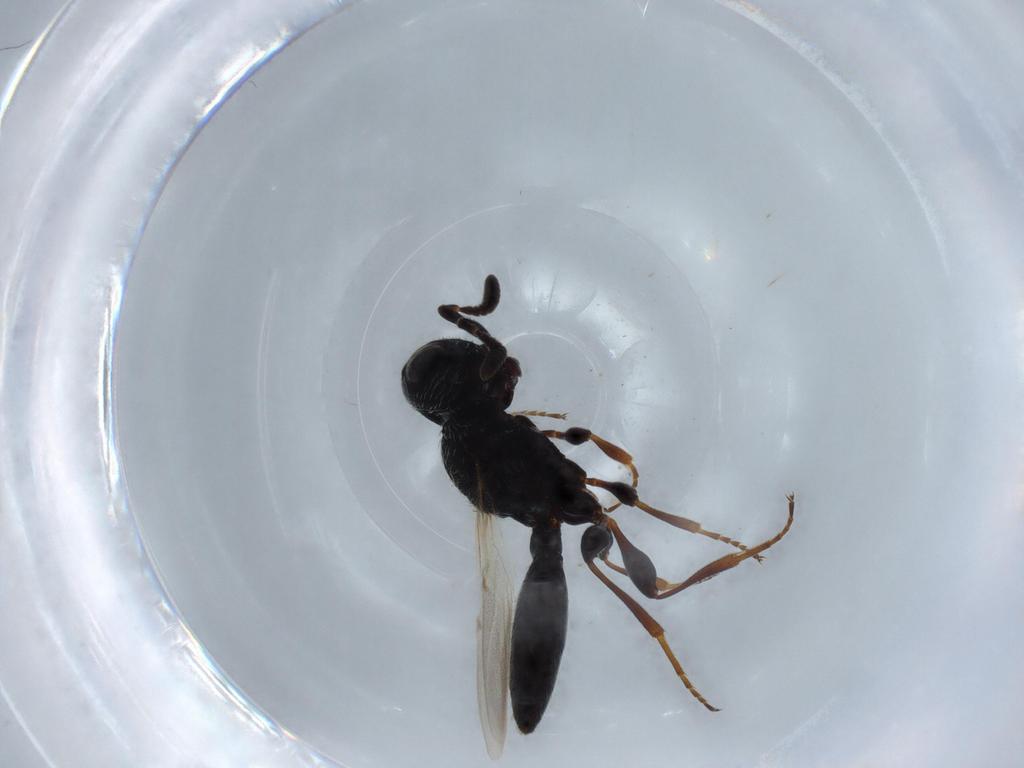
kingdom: Animalia
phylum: Arthropoda
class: Insecta
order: Hymenoptera
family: Scelionidae
